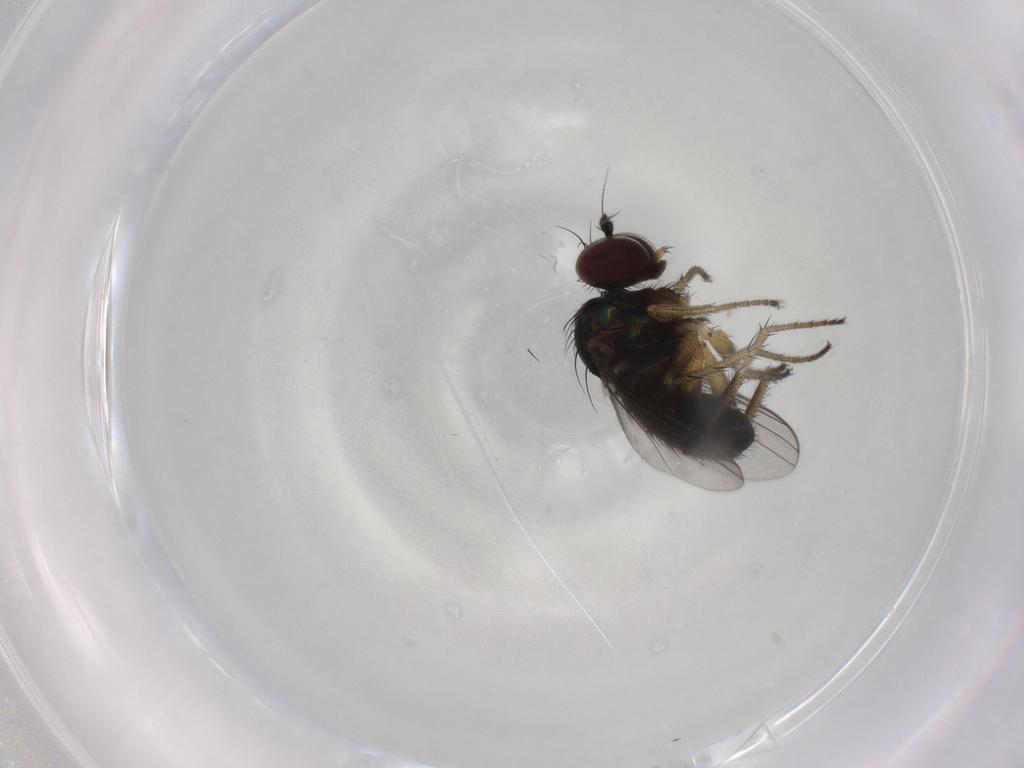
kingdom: Animalia
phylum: Arthropoda
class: Insecta
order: Diptera
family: Dolichopodidae
